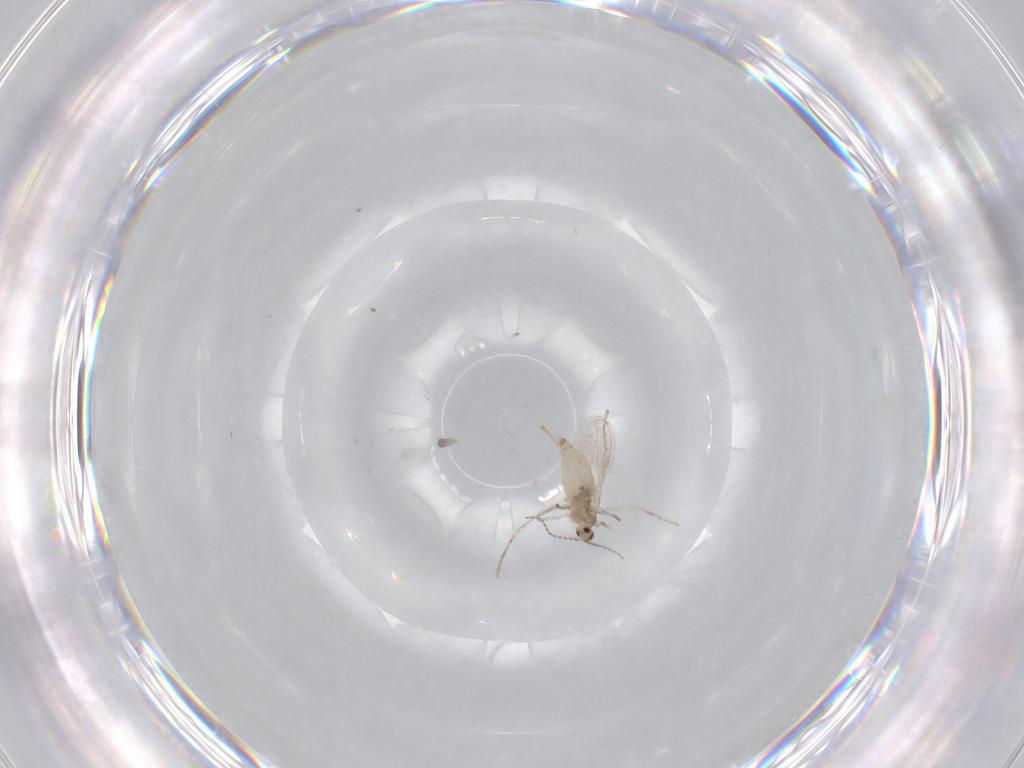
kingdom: Animalia
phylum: Arthropoda
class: Insecta
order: Diptera
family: Cecidomyiidae
